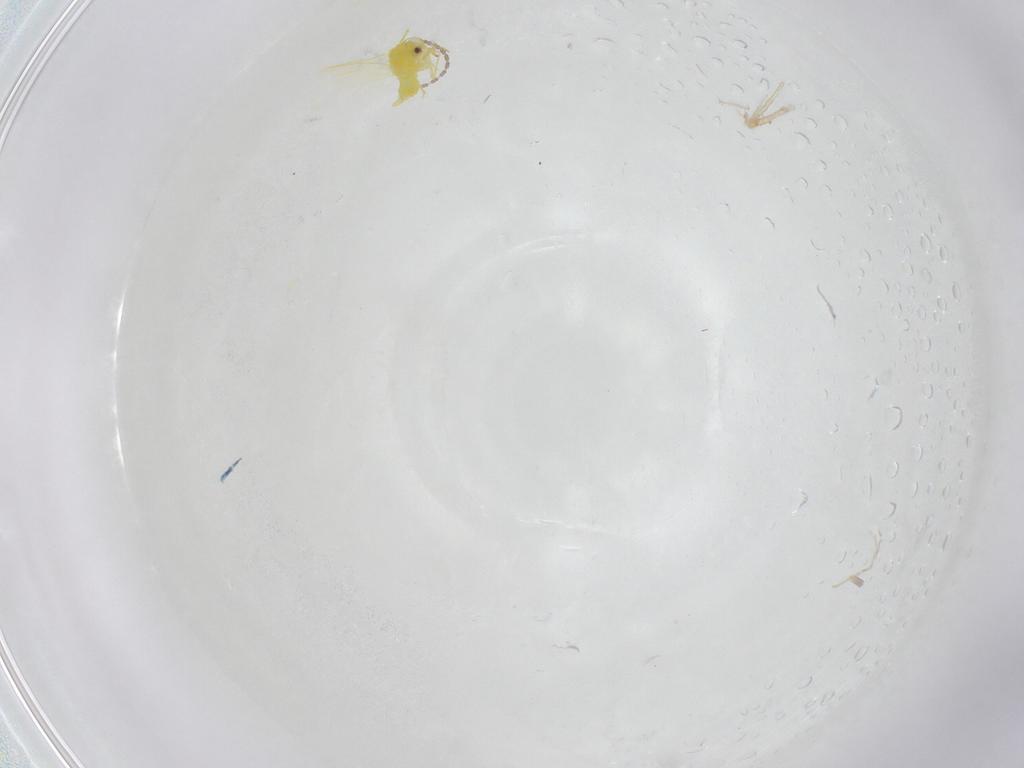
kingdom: Animalia
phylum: Arthropoda
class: Insecta
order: Hemiptera
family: Aleyrodidae
